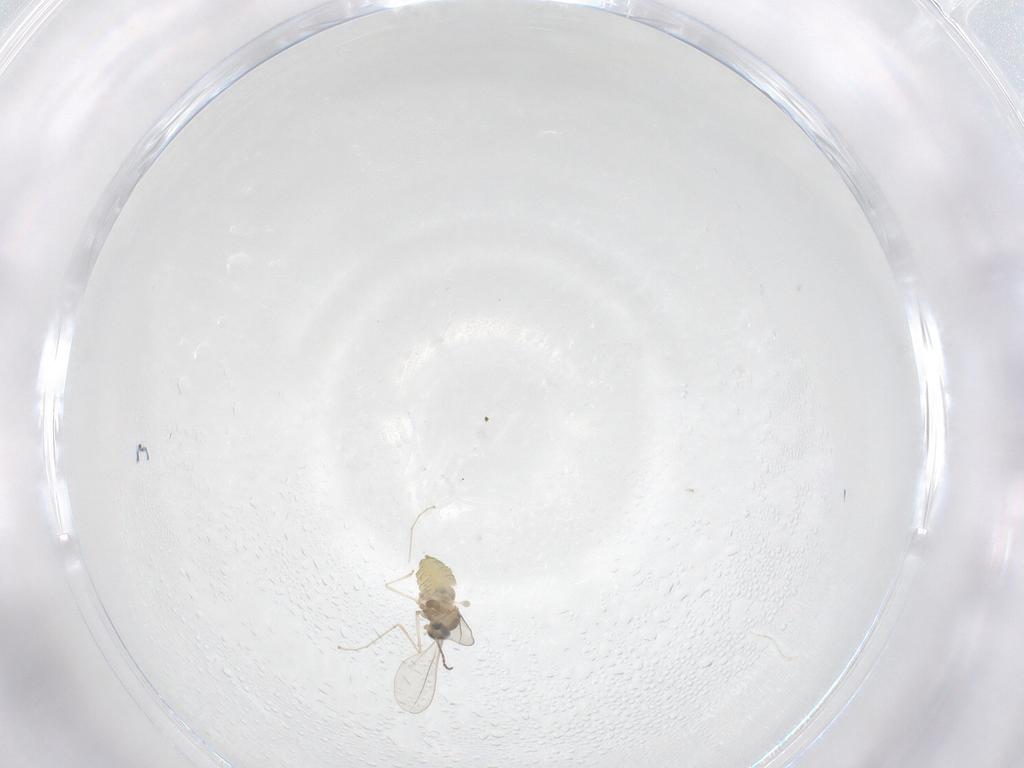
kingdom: Animalia
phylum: Arthropoda
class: Insecta
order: Diptera
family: Cecidomyiidae
